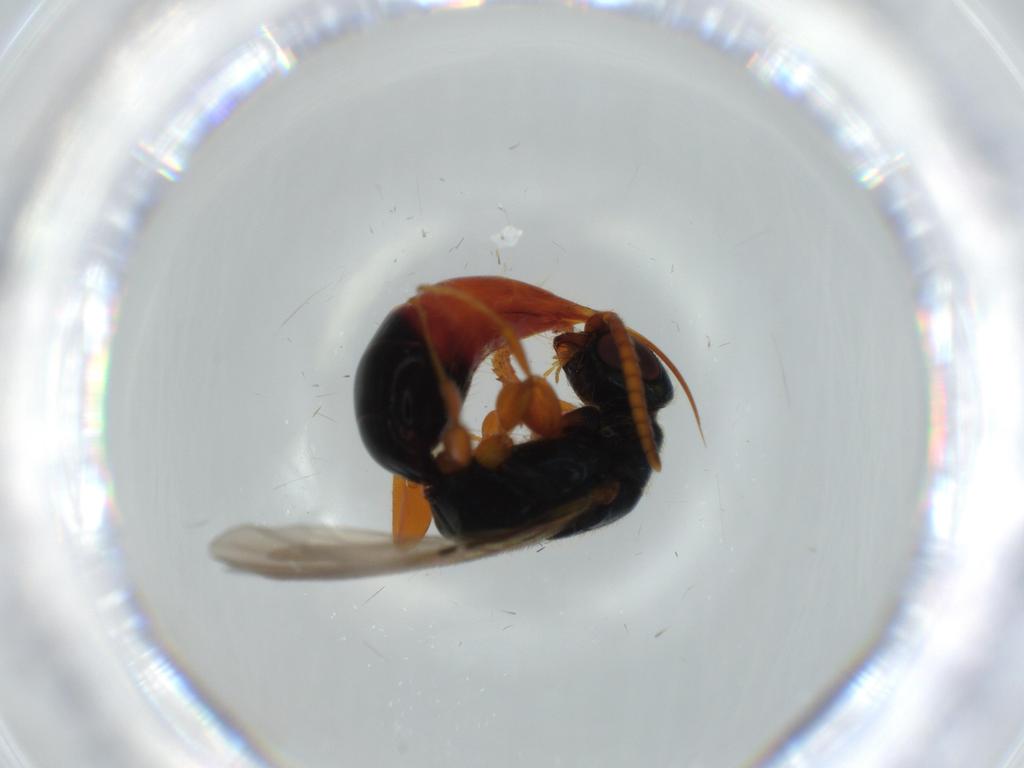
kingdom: Animalia
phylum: Arthropoda
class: Insecta
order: Hymenoptera
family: Bethylidae
